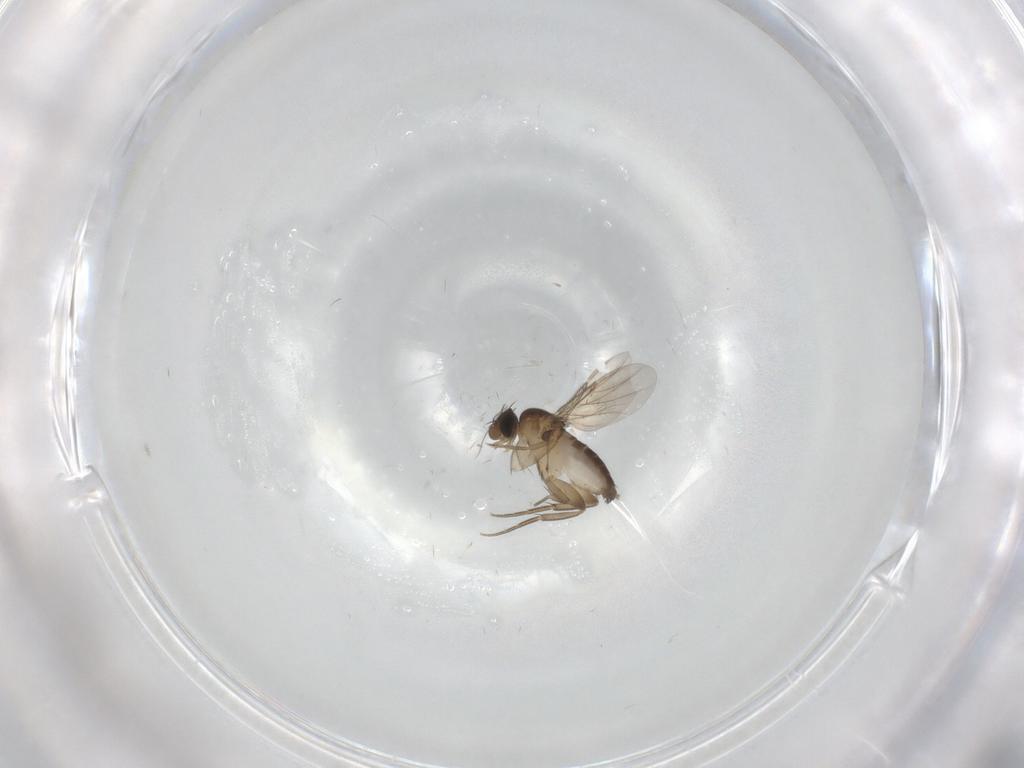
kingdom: Animalia
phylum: Arthropoda
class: Insecta
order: Diptera
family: Phoridae
